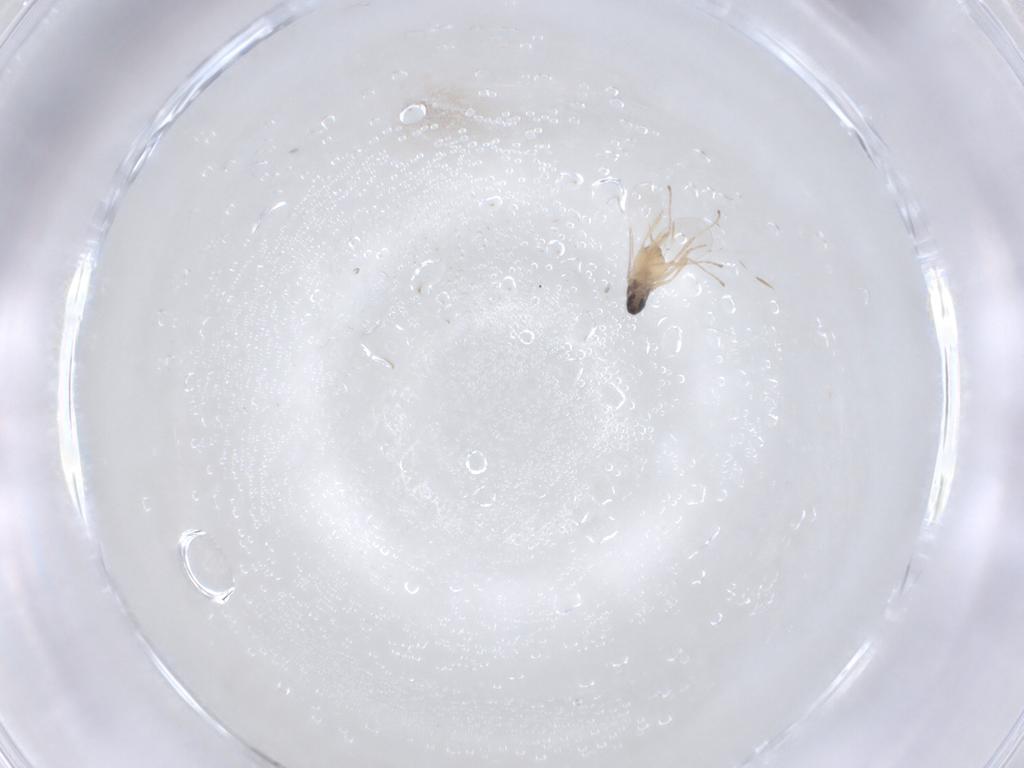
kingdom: Animalia
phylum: Arthropoda
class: Insecta
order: Diptera
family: Cecidomyiidae
